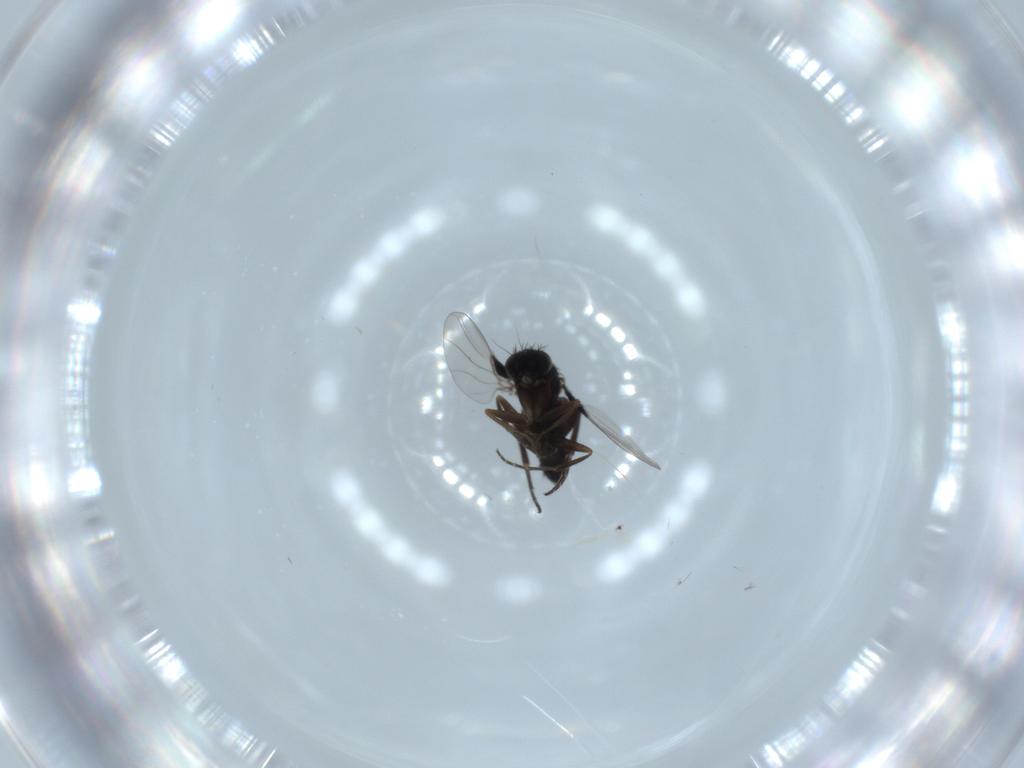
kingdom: Animalia
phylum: Arthropoda
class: Insecta
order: Diptera
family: Phoridae
